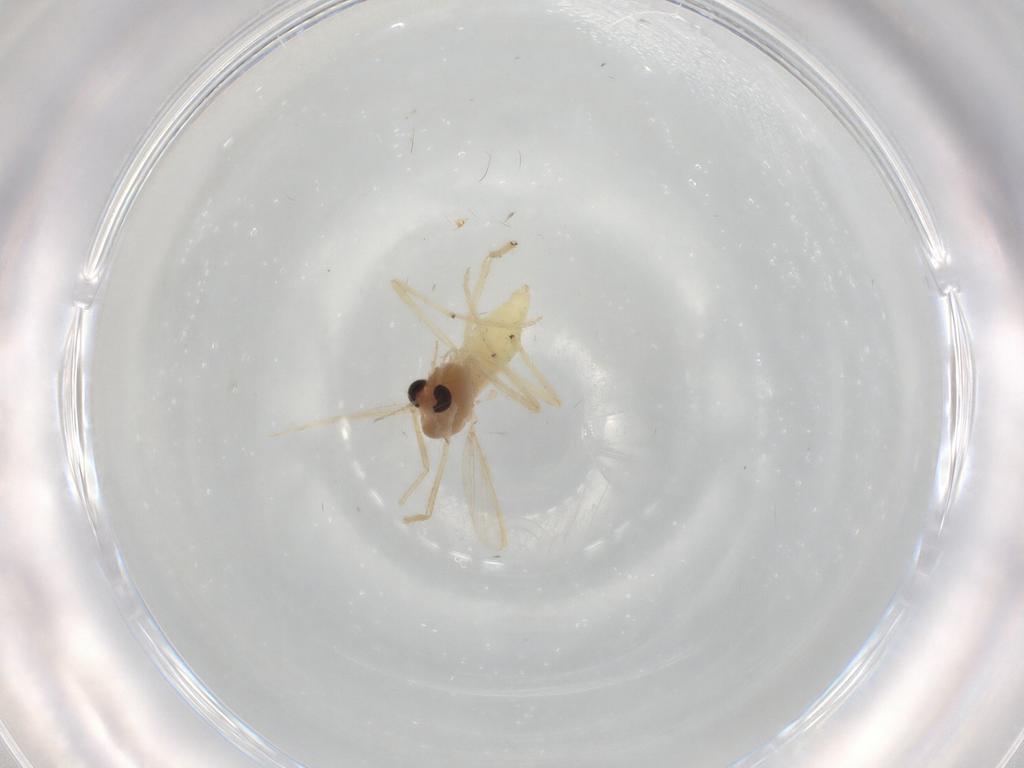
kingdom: Animalia
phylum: Arthropoda
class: Insecta
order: Diptera
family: Chironomidae
